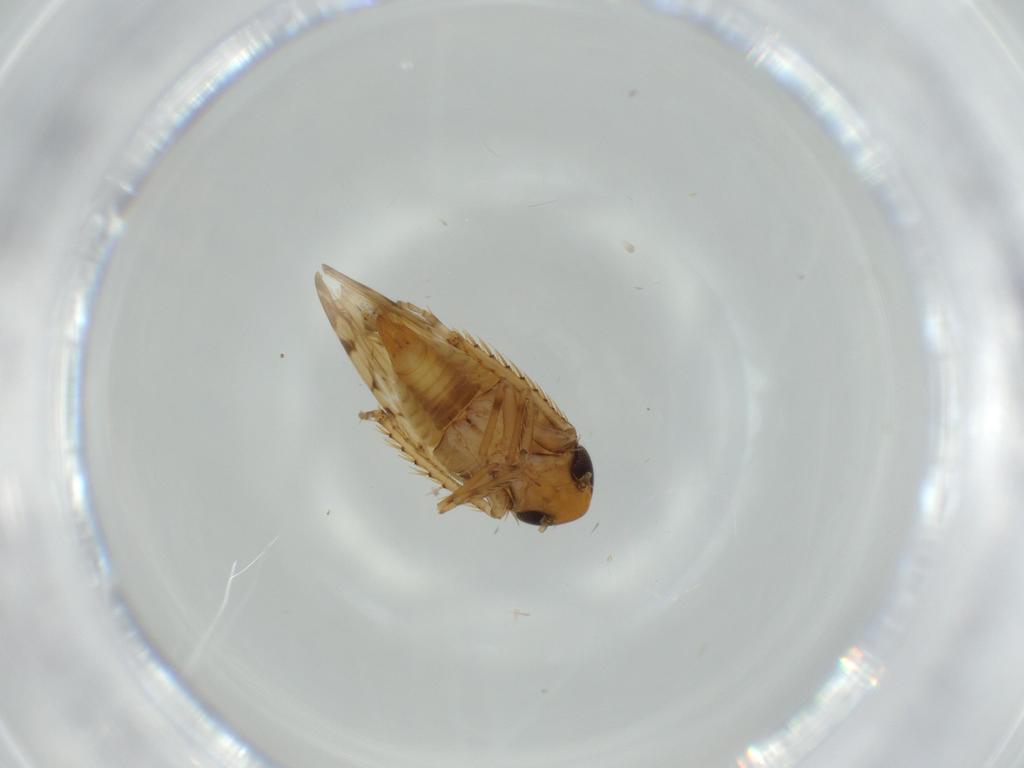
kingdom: Animalia
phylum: Arthropoda
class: Insecta
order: Hemiptera
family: Cicadellidae
